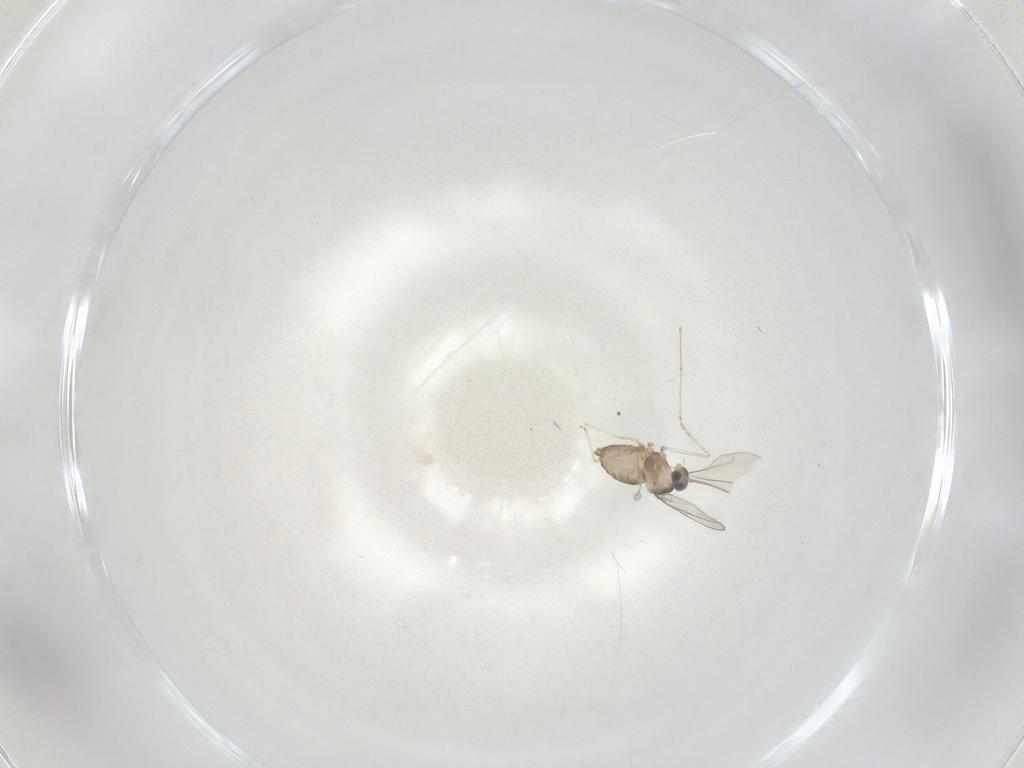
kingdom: Animalia
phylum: Arthropoda
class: Insecta
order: Diptera
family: Cecidomyiidae
